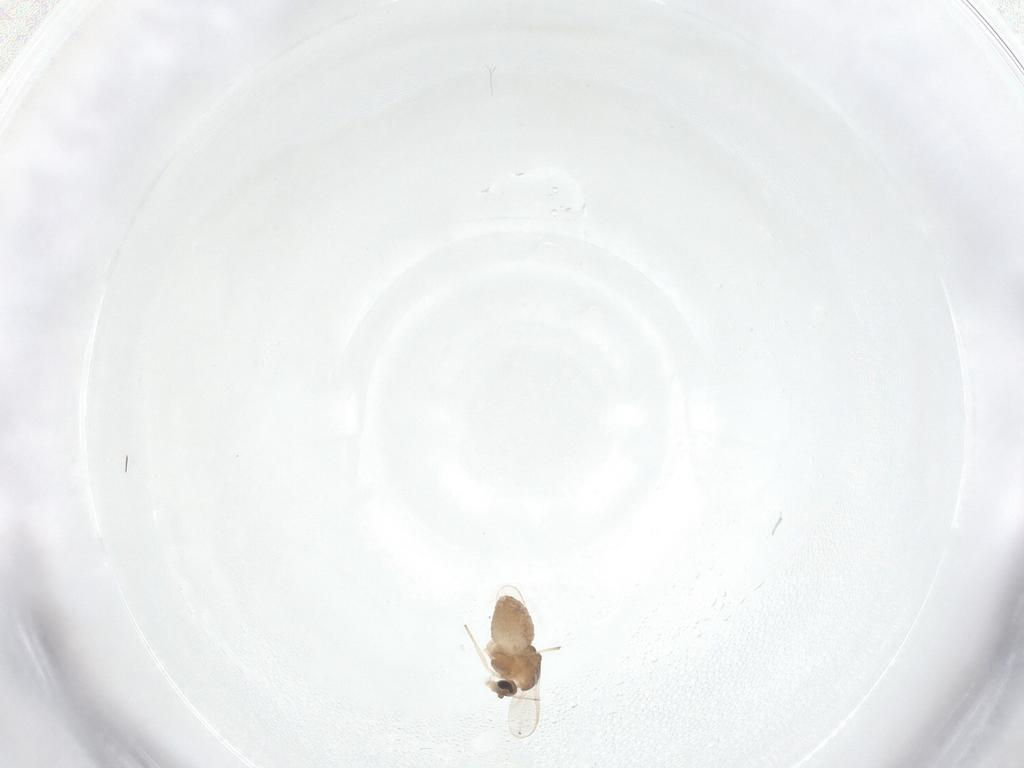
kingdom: Animalia
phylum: Arthropoda
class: Insecta
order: Diptera
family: Chironomidae
